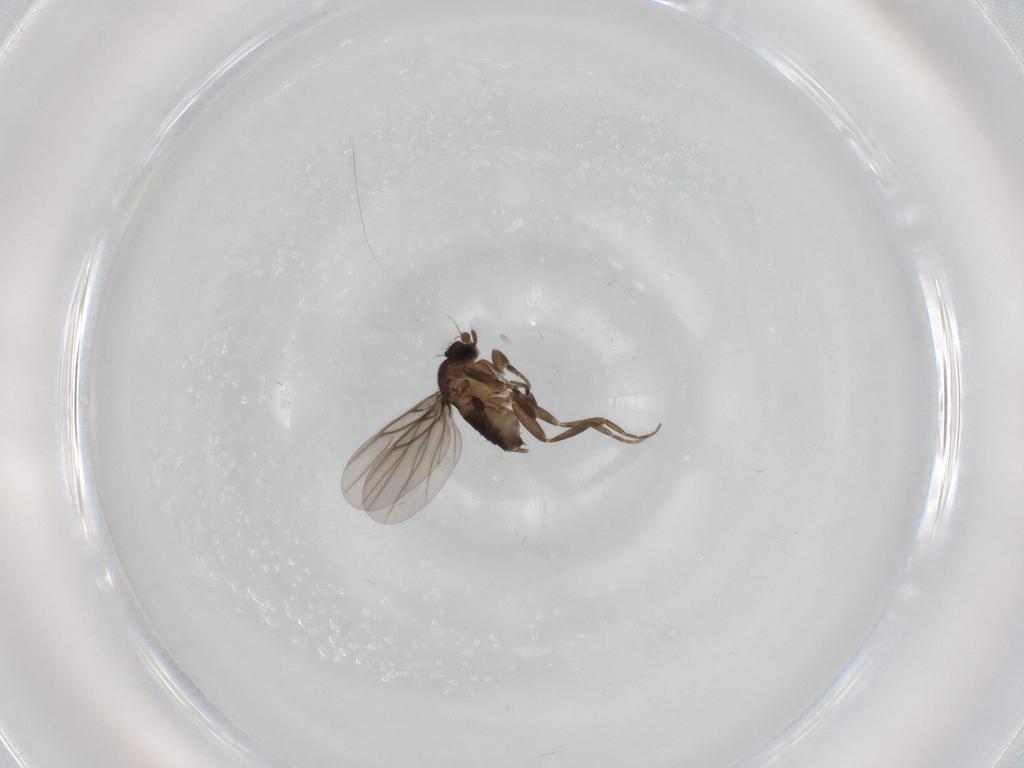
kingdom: Animalia
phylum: Arthropoda
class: Insecta
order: Diptera
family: Phoridae
